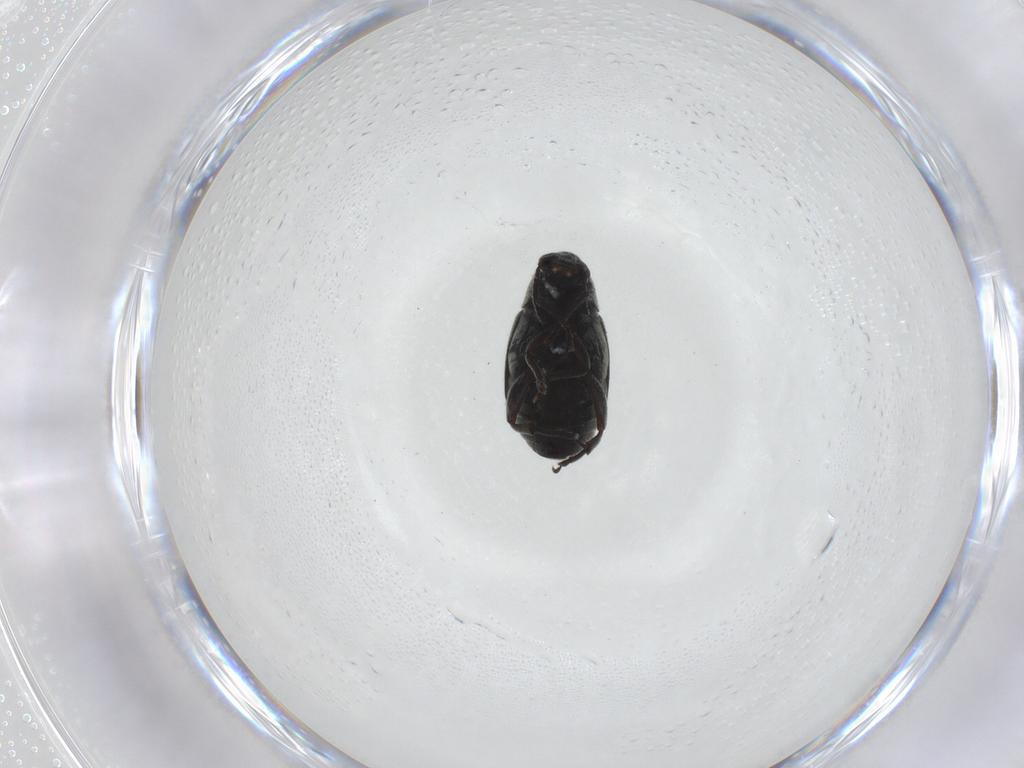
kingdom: Animalia
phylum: Arthropoda
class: Insecta
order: Coleoptera
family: Chrysomelidae
